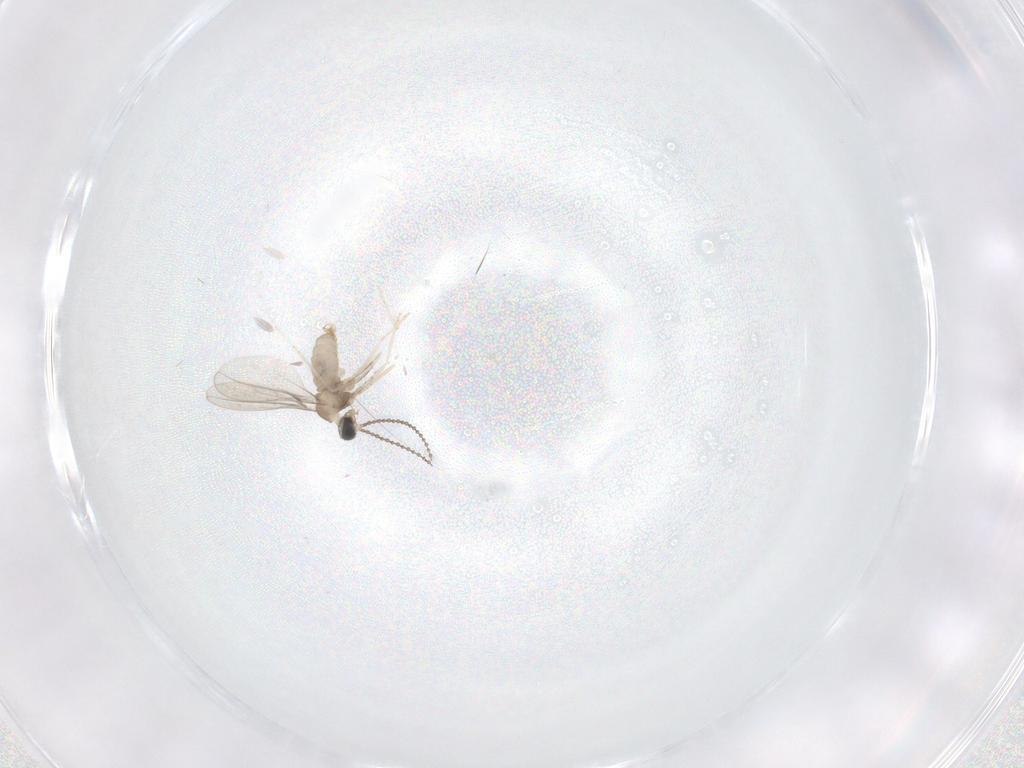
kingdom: Animalia
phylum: Arthropoda
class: Insecta
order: Diptera
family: Cecidomyiidae
